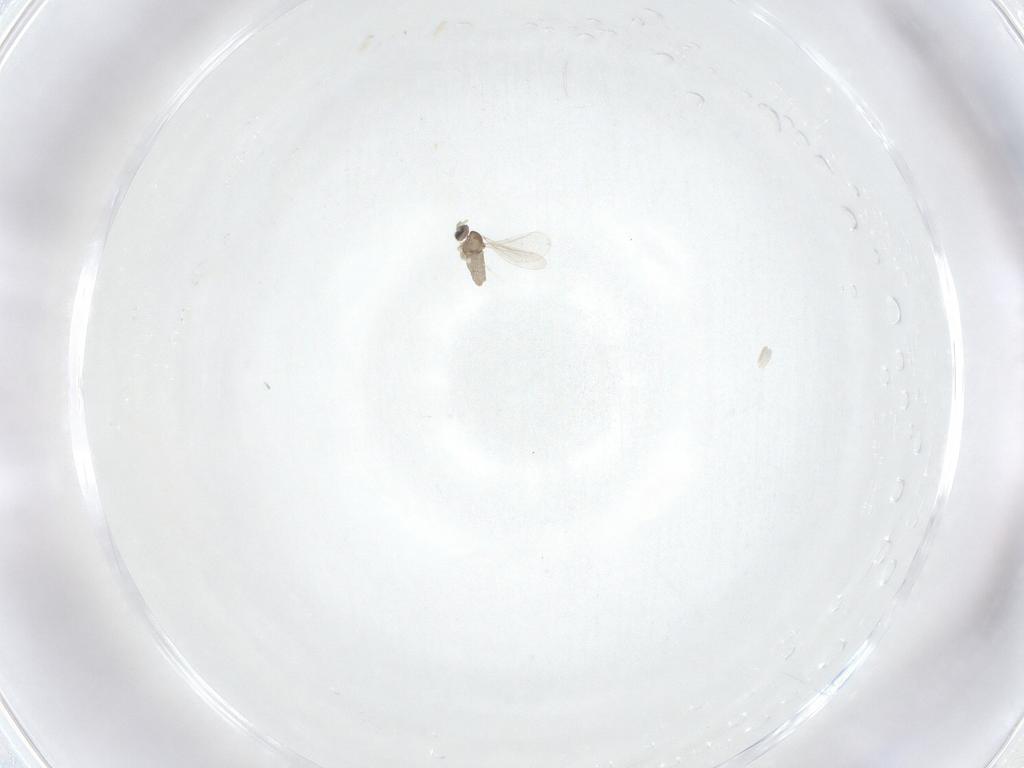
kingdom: Animalia
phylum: Arthropoda
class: Insecta
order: Diptera
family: Cecidomyiidae
